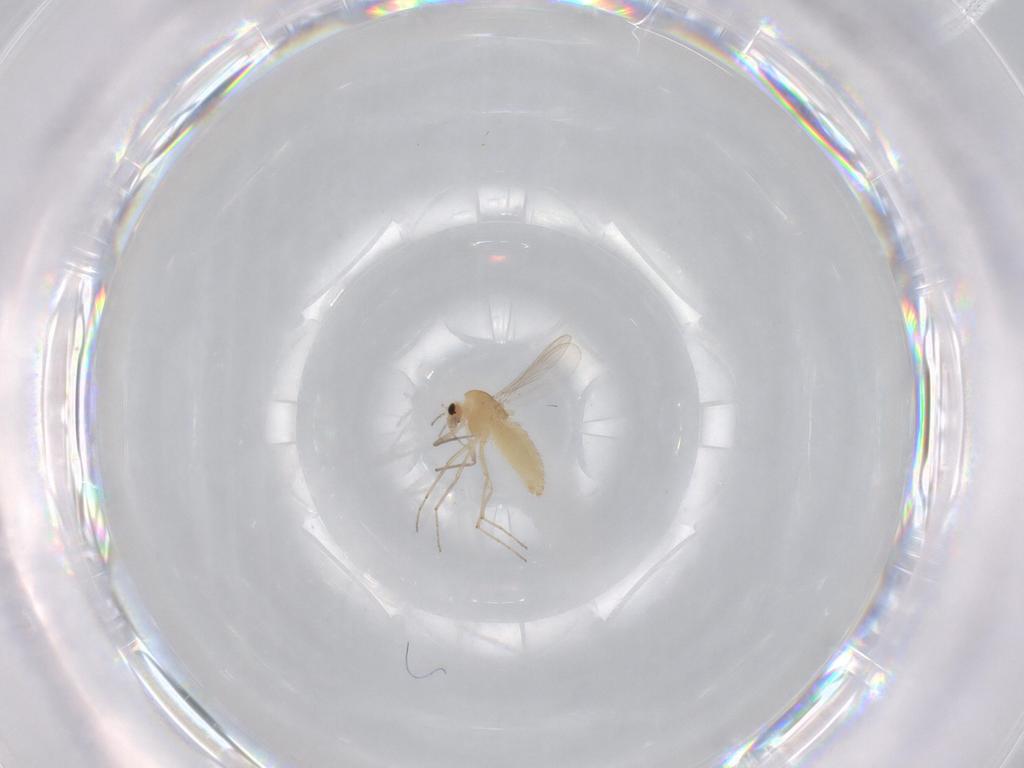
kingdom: Animalia
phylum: Arthropoda
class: Insecta
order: Diptera
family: Chironomidae
